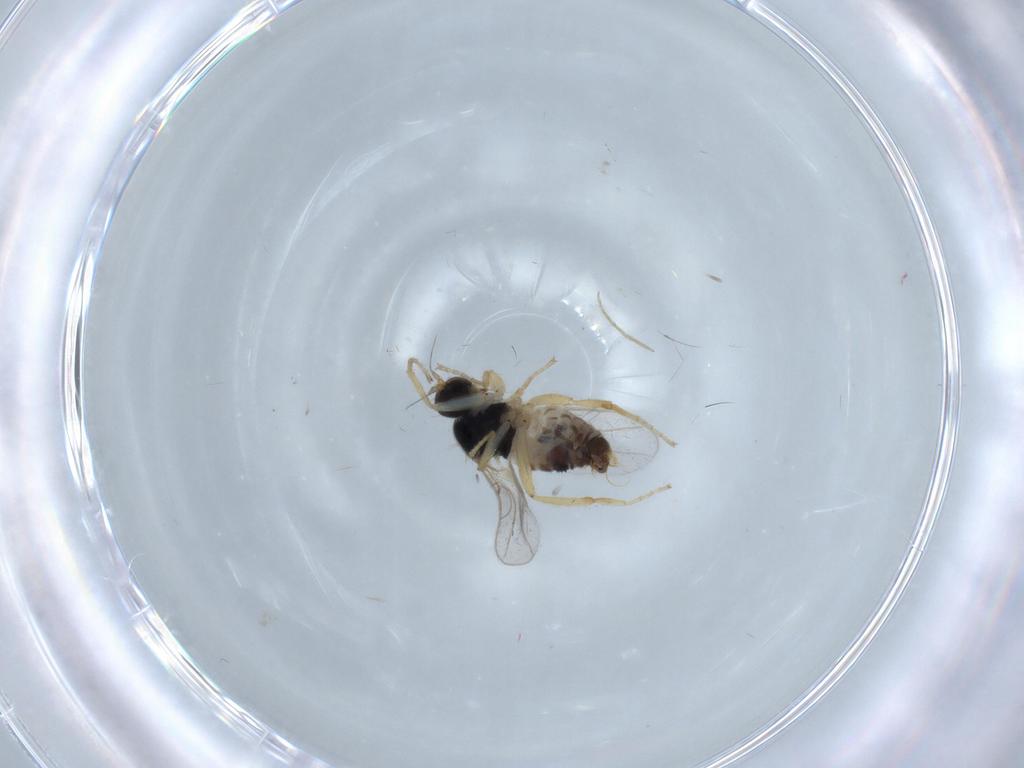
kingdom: Animalia
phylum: Arthropoda
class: Insecta
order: Diptera
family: Hybotidae
